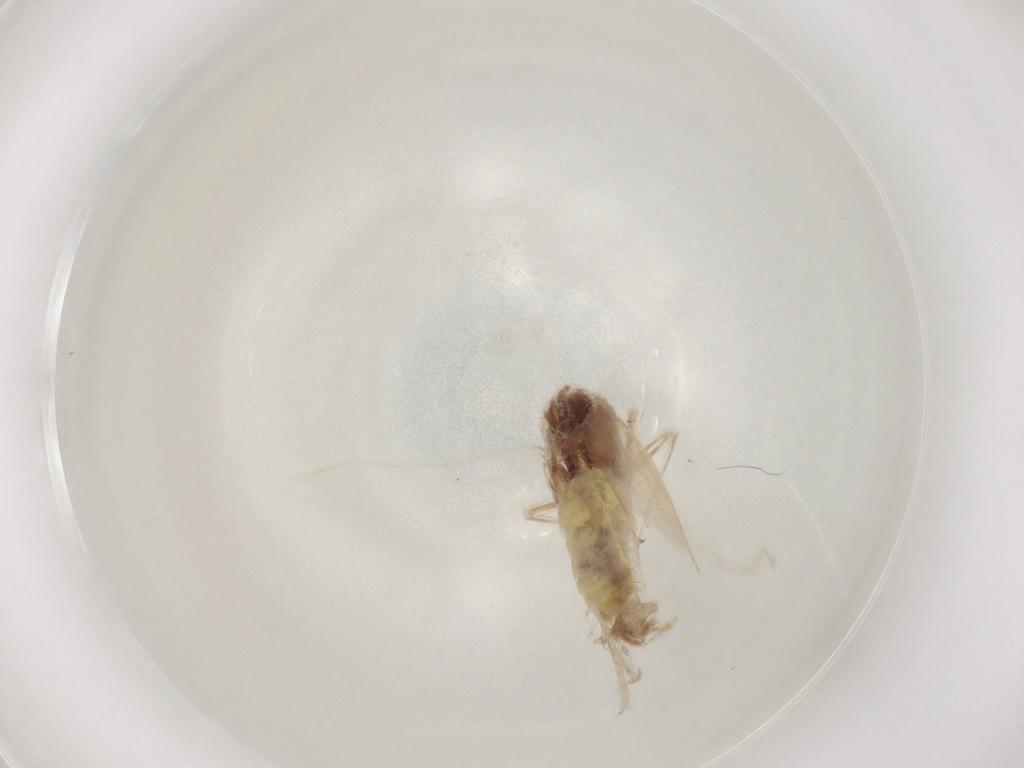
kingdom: Animalia
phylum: Arthropoda
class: Insecta
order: Hemiptera
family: Cicadellidae
